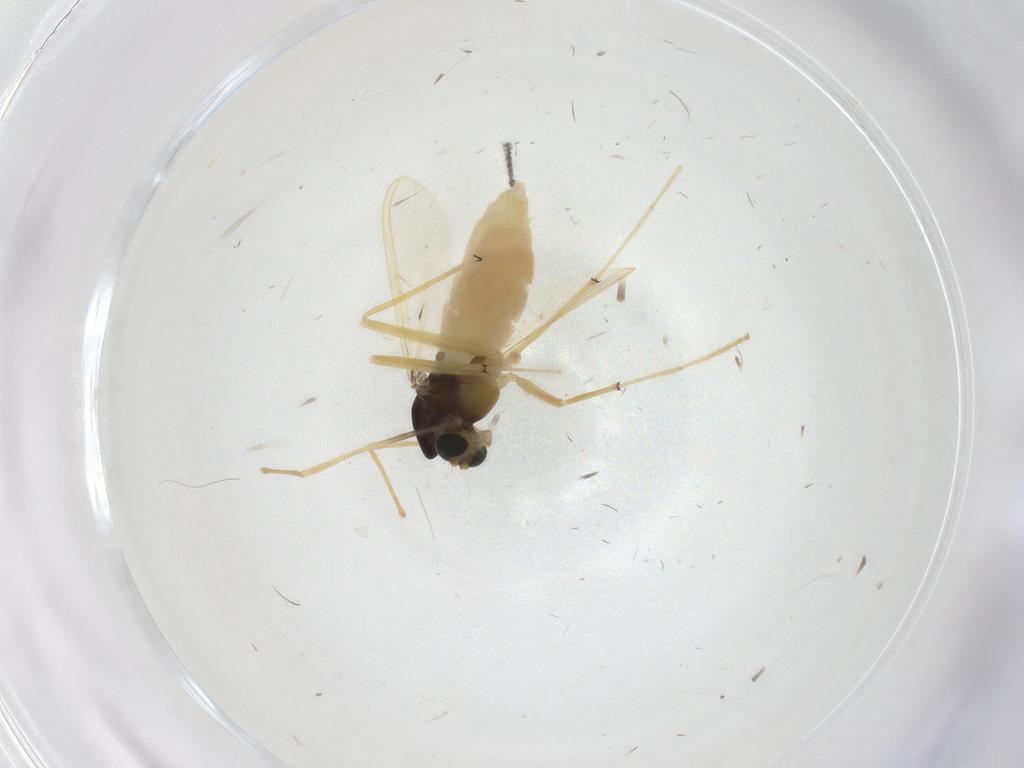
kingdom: Animalia
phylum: Arthropoda
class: Insecta
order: Diptera
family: Chironomidae
